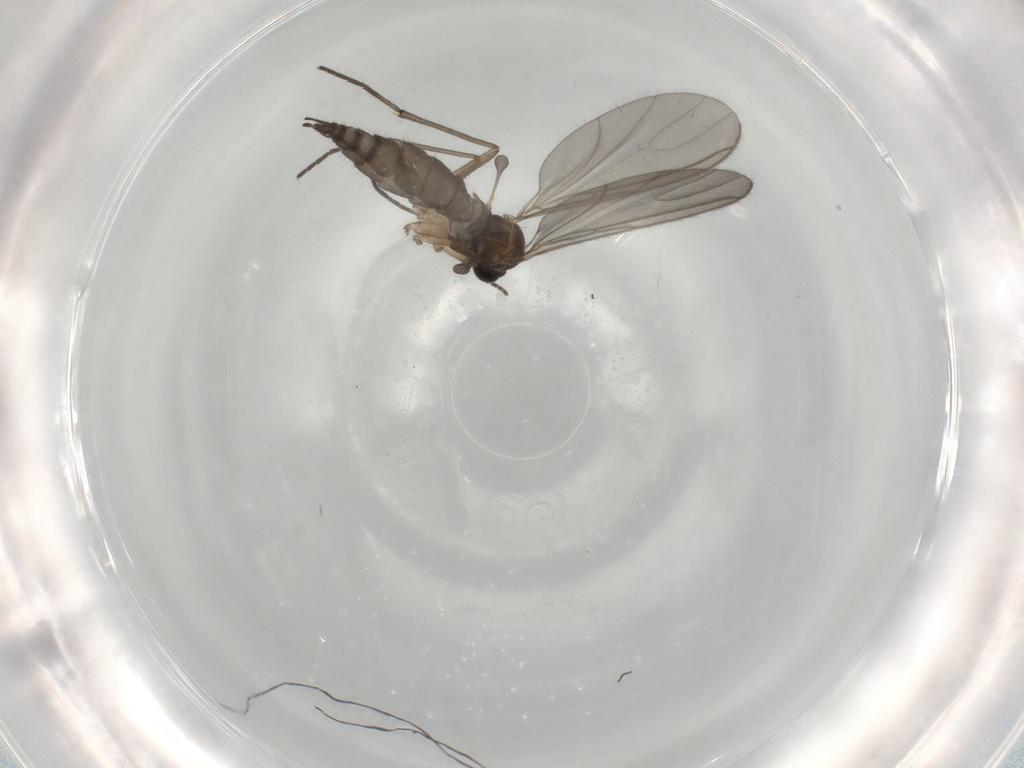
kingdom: Animalia
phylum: Arthropoda
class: Insecta
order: Diptera
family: Sciaridae
